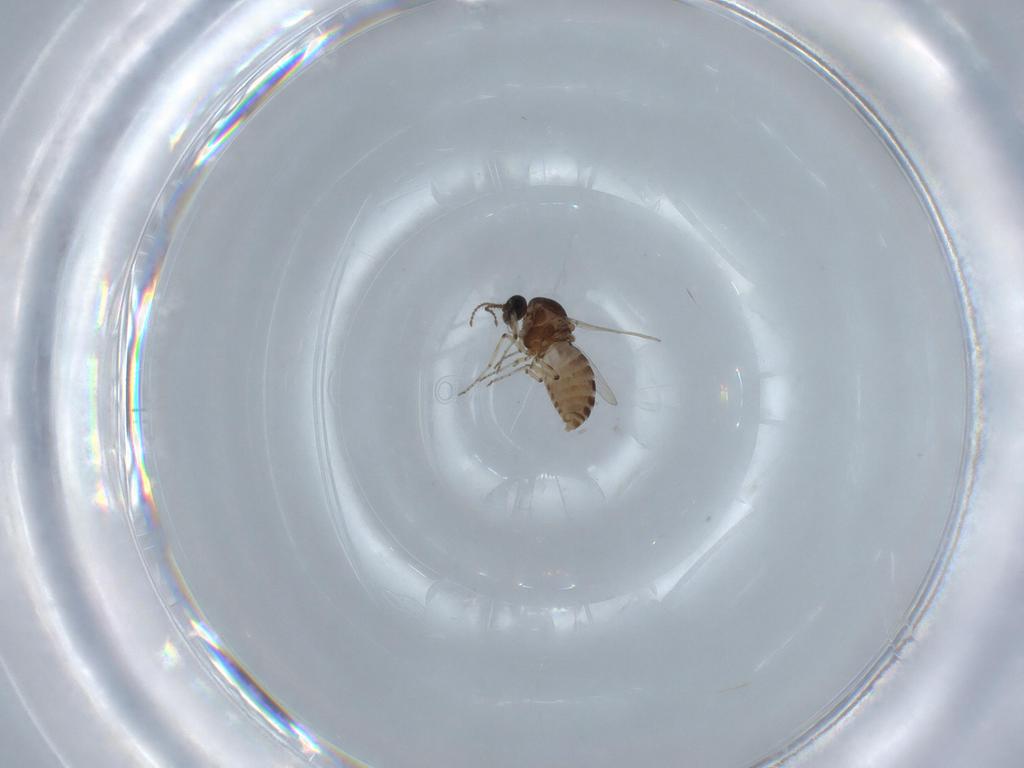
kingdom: Animalia
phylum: Arthropoda
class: Insecta
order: Diptera
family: Ceratopogonidae
